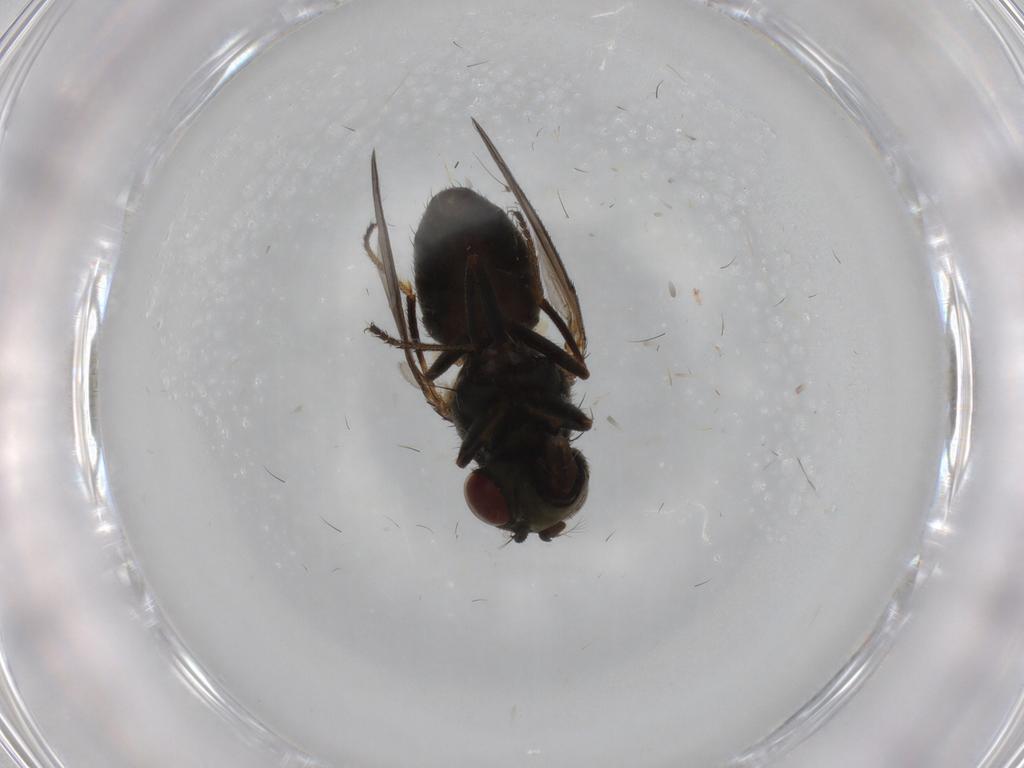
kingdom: Animalia
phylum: Arthropoda
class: Insecta
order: Diptera
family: Ephydridae
